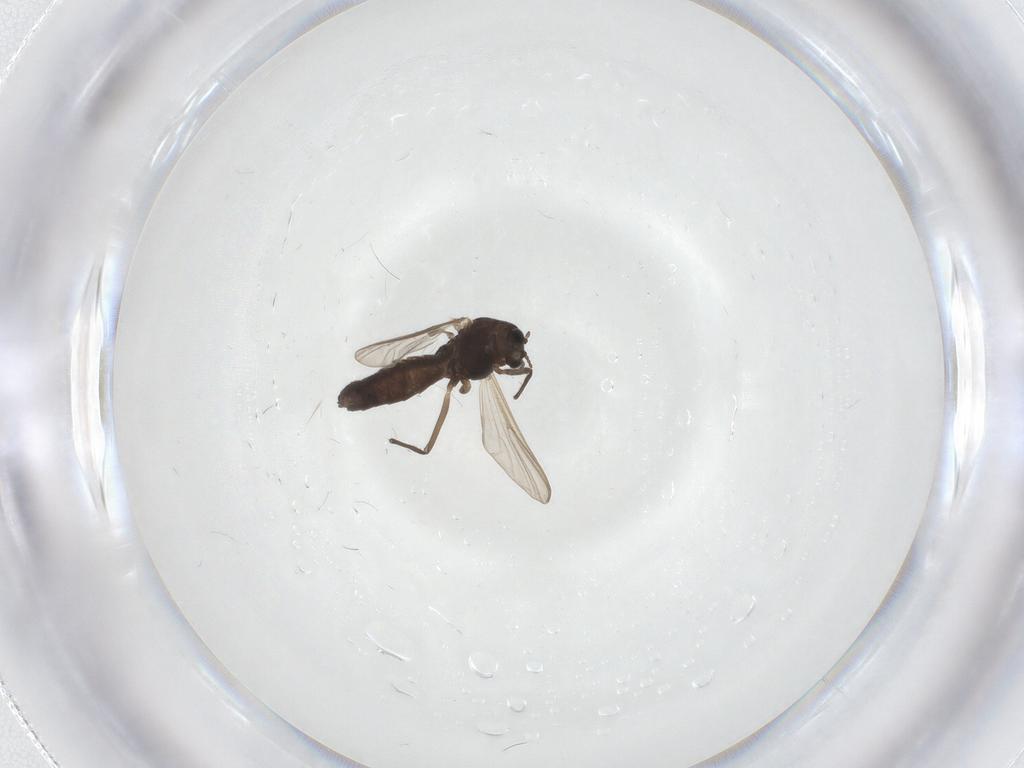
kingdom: Animalia
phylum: Arthropoda
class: Insecta
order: Diptera
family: Sciaridae
